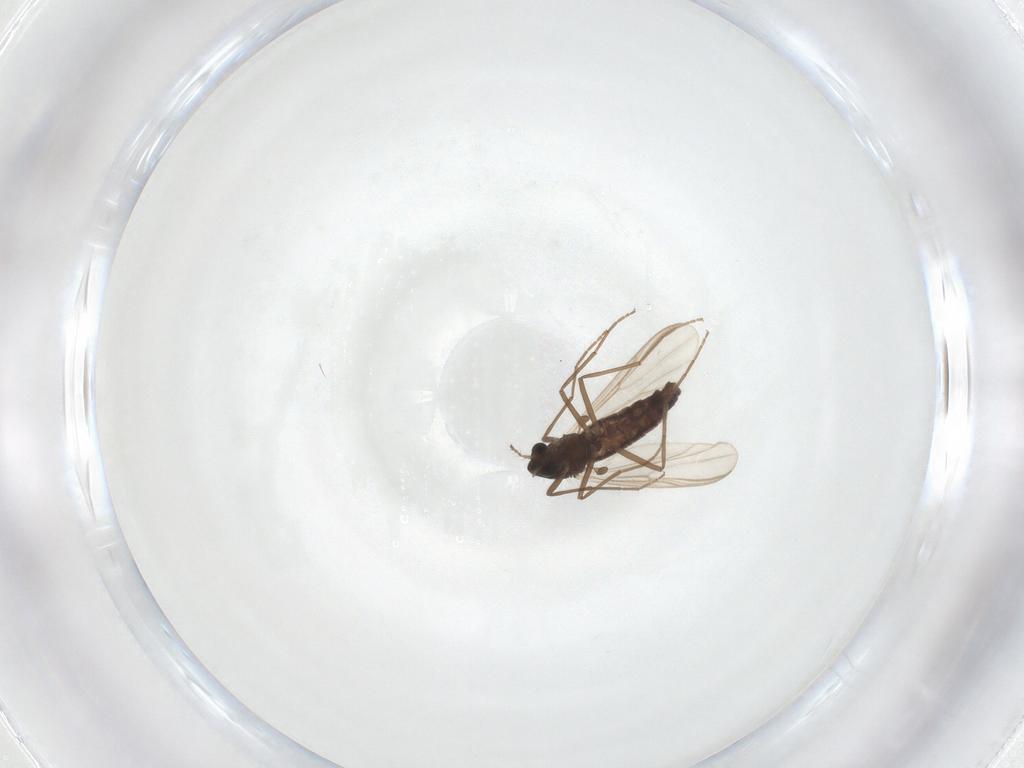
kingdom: Animalia
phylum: Arthropoda
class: Insecta
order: Diptera
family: Chironomidae
